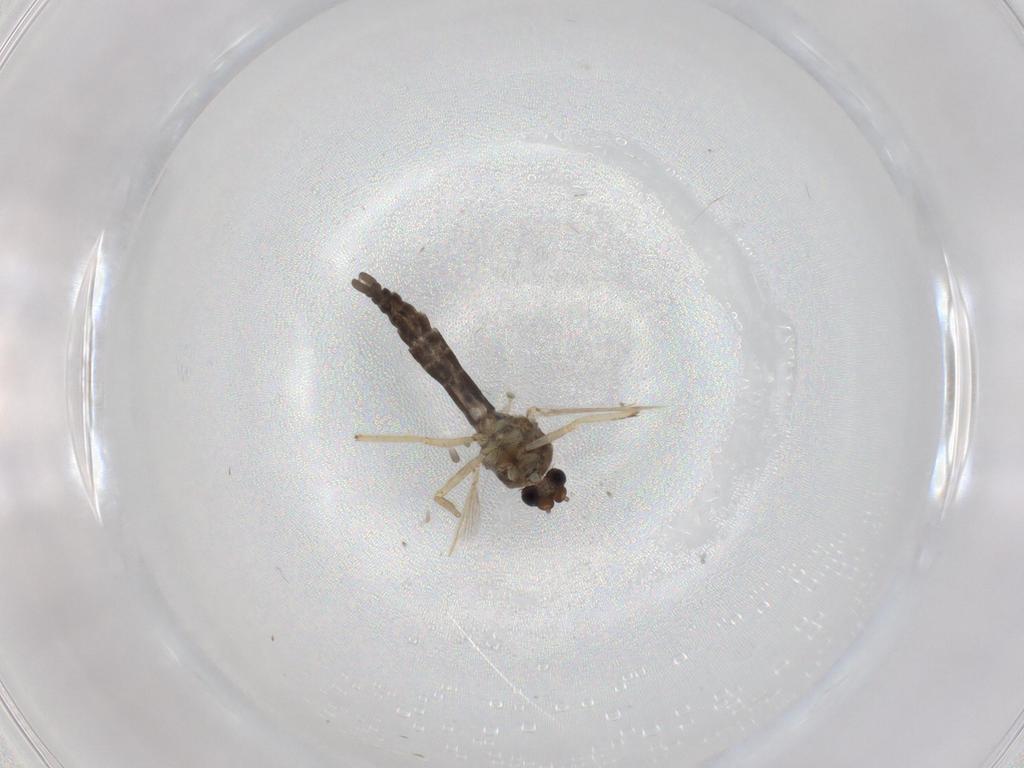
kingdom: Animalia
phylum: Arthropoda
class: Insecta
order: Diptera
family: Ceratopogonidae
